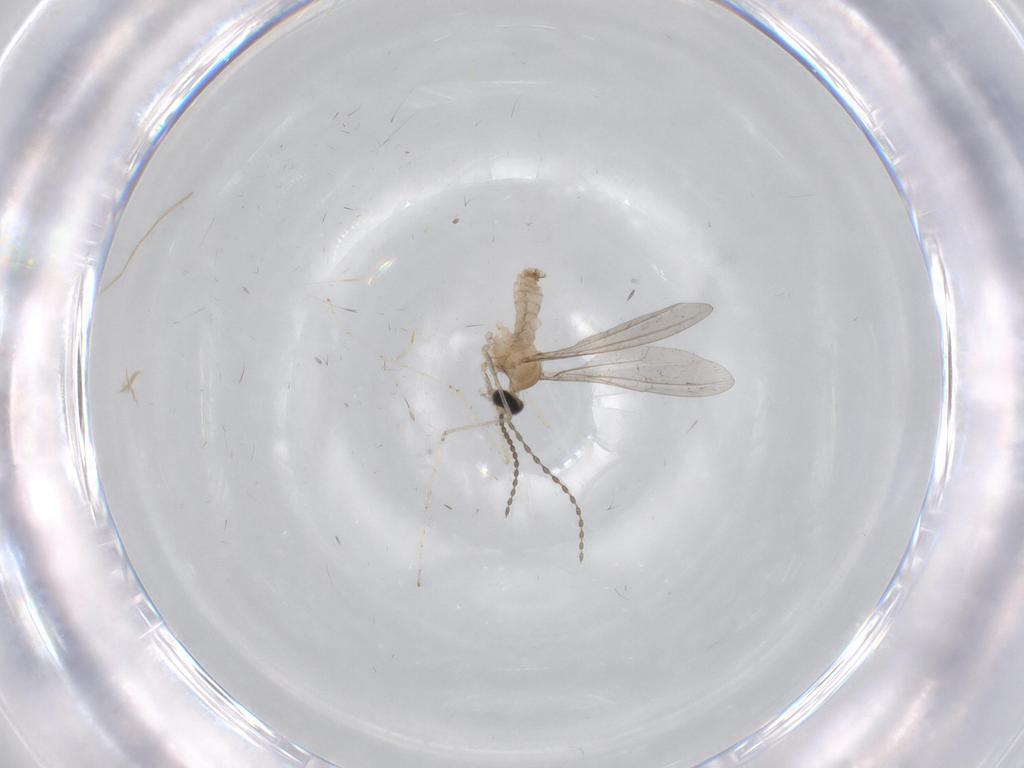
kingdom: Animalia
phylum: Arthropoda
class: Insecta
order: Diptera
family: Cecidomyiidae
